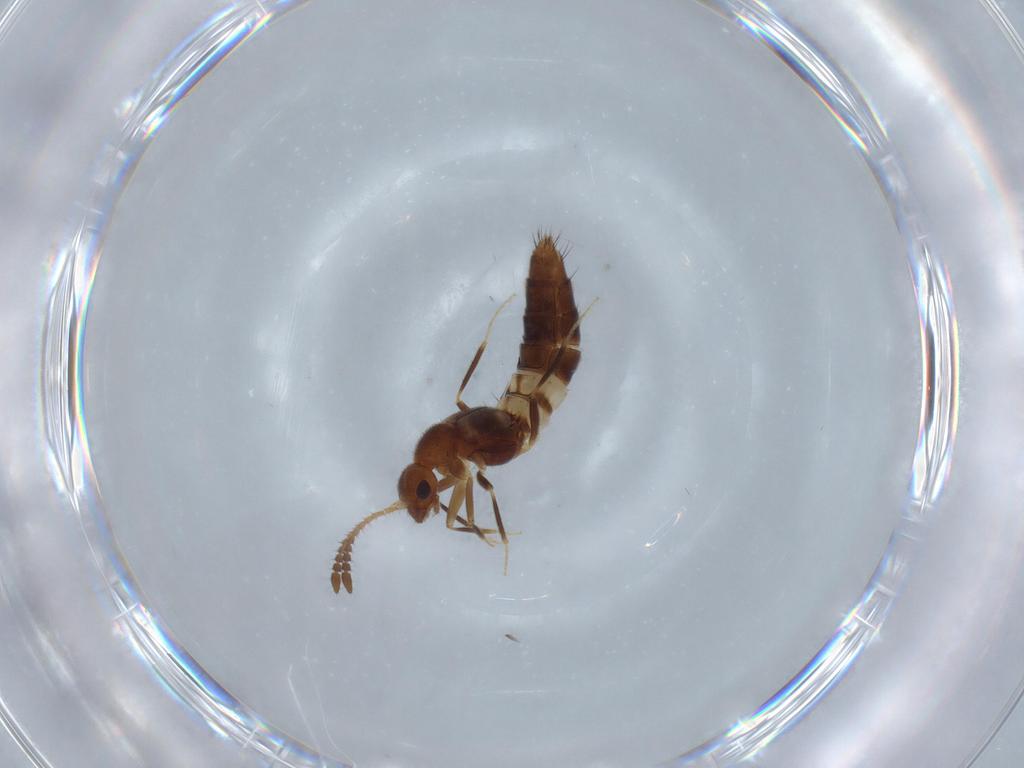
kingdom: Animalia
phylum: Arthropoda
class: Insecta
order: Coleoptera
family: Staphylinidae
